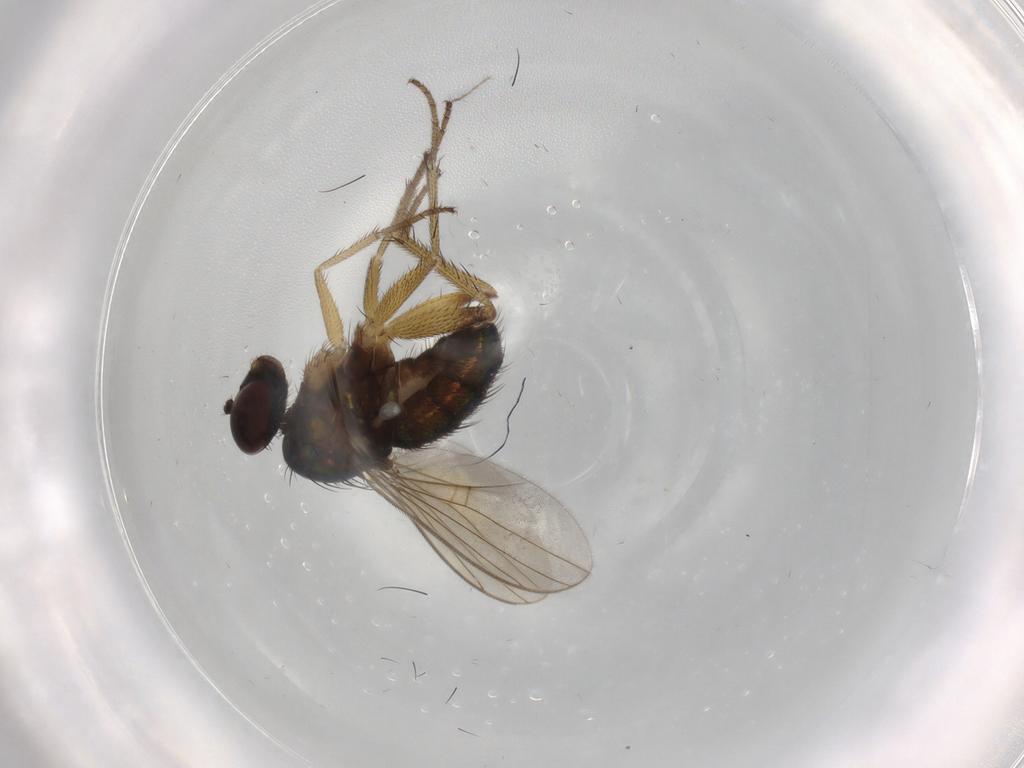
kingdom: Animalia
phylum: Arthropoda
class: Insecta
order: Diptera
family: Dolichopodidae
